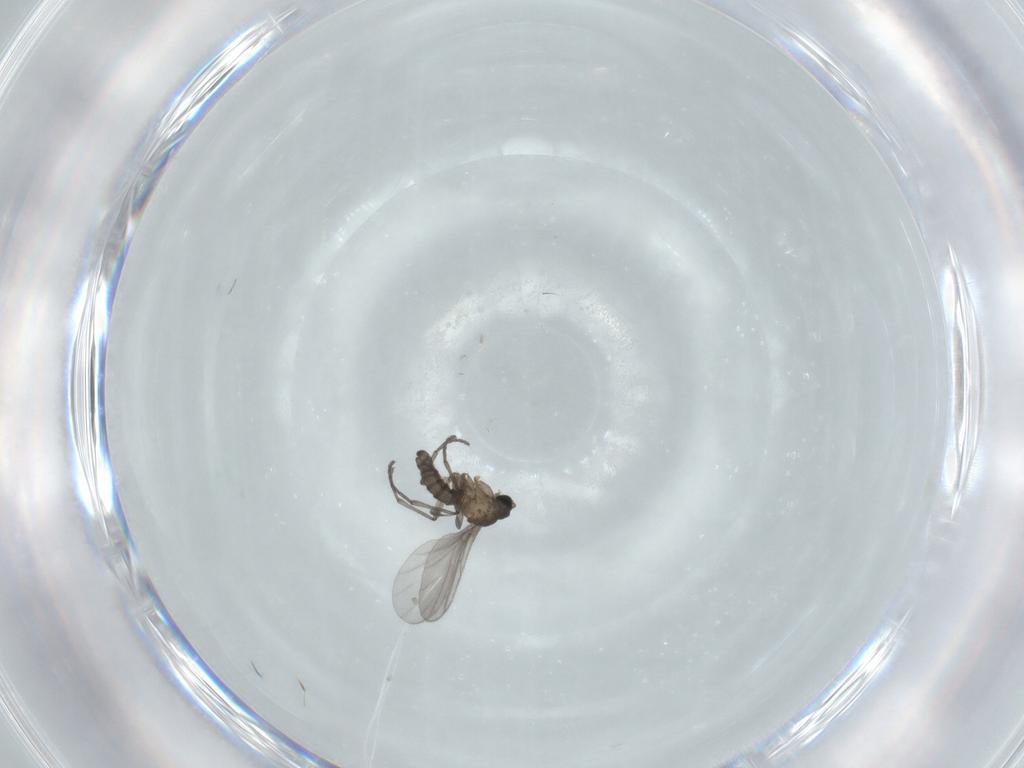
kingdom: Animalia
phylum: Arthropoda
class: Insecta
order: Diptera
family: Sciaridae
